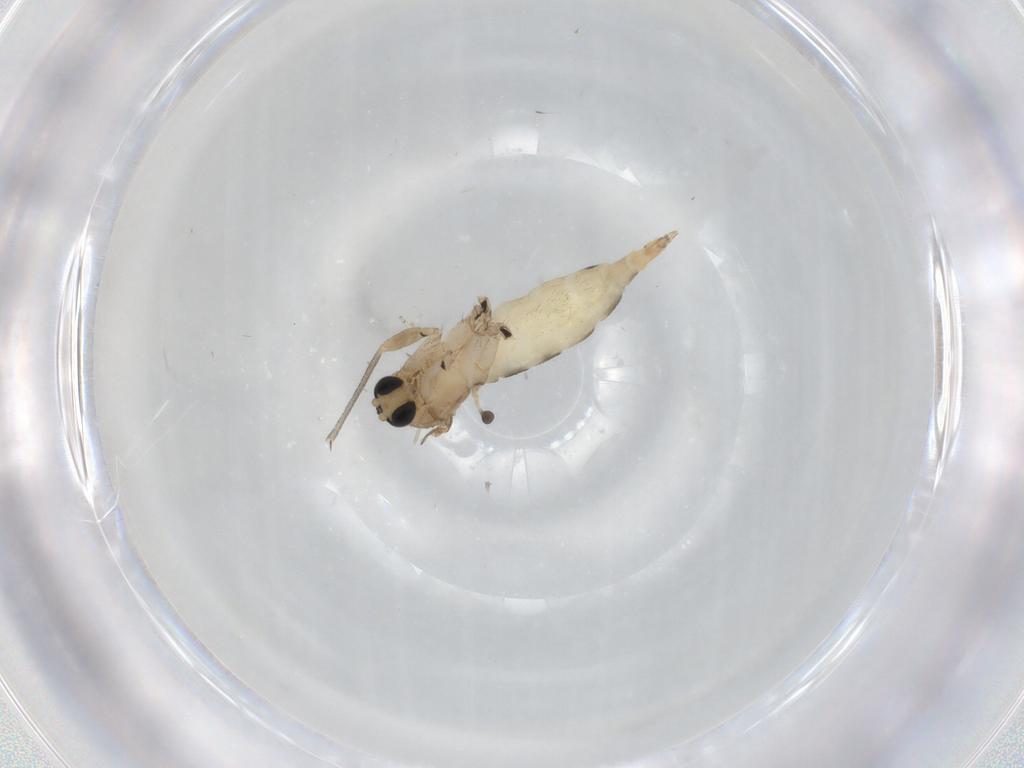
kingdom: Animalia
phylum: Arthropoda
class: Insecta
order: Diptera
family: Sciaridae
